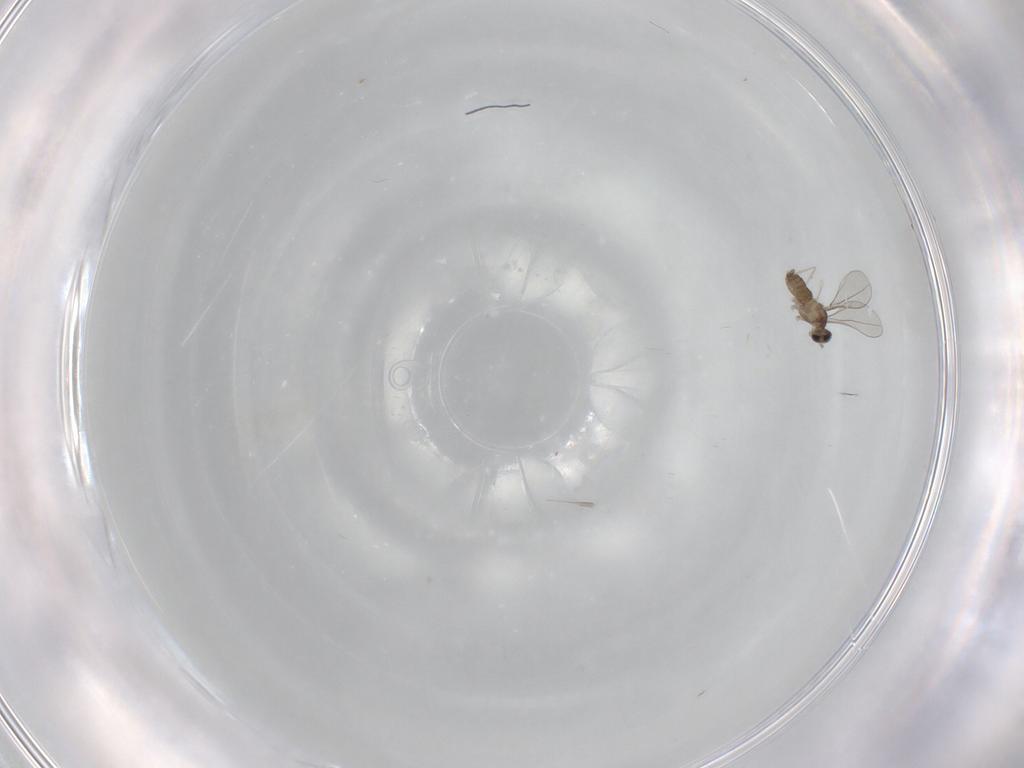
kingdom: Animalia
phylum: Arthropoda
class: Insecta
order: Diptera
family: Cecidomyiidae
